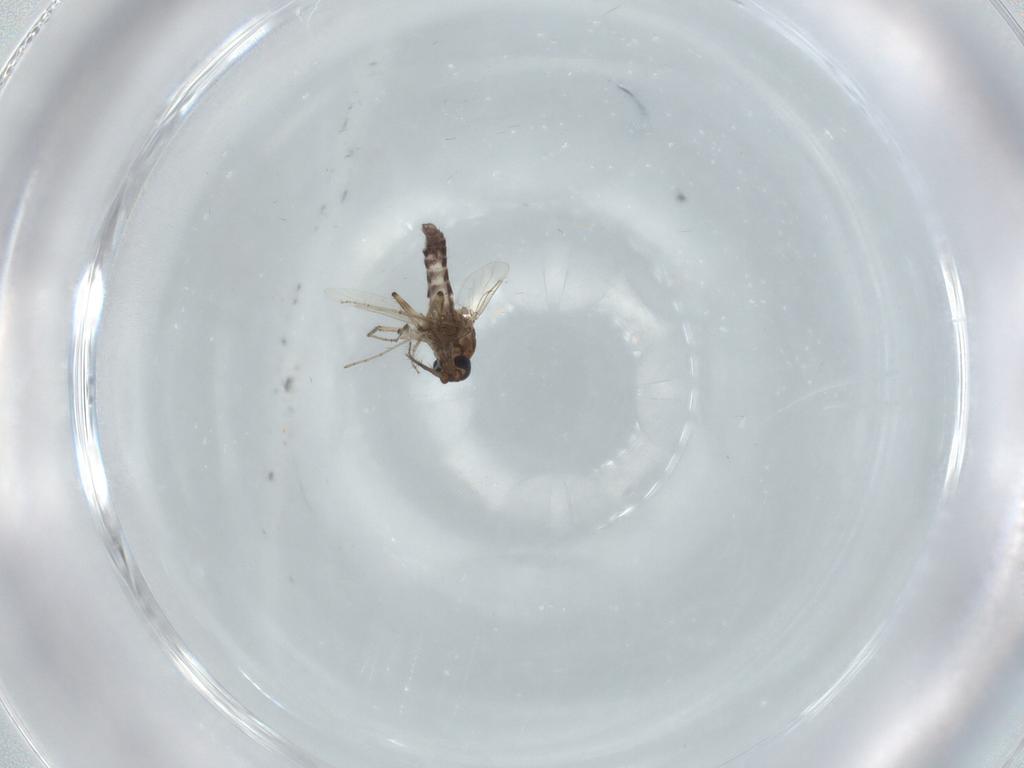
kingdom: Animalia
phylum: Arthropoda
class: Insecta
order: Diptera
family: Ceratopogonidae
